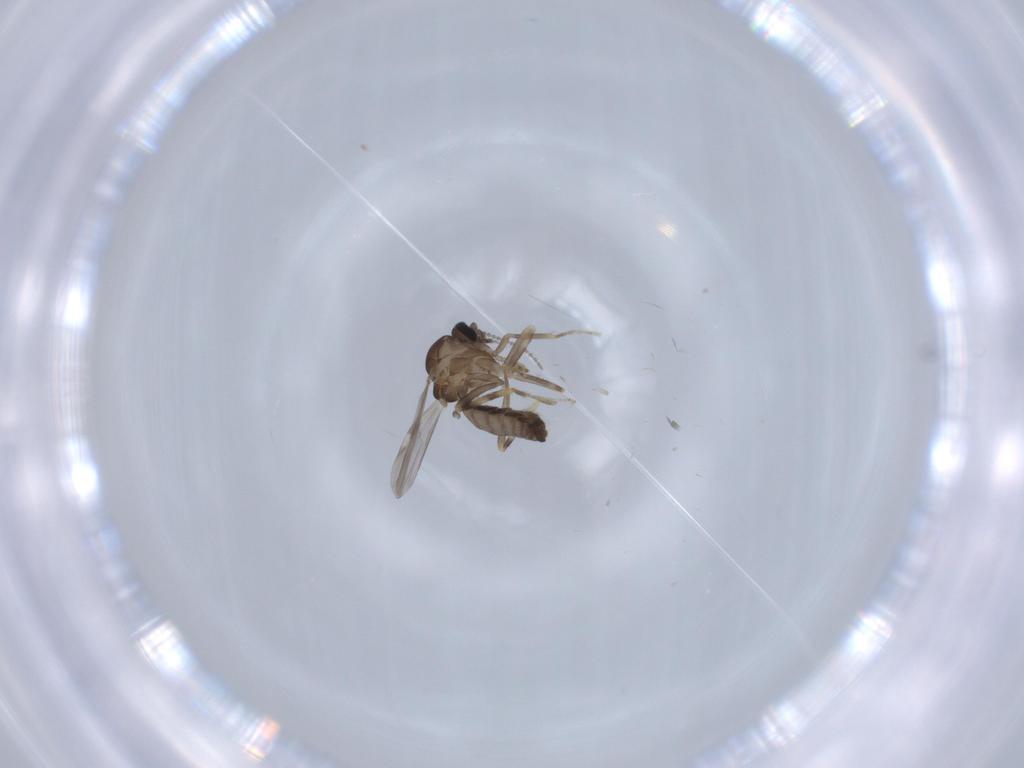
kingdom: Animalia
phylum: Arthropoda
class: Insecta
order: Diptera
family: Ceratopogonidae
